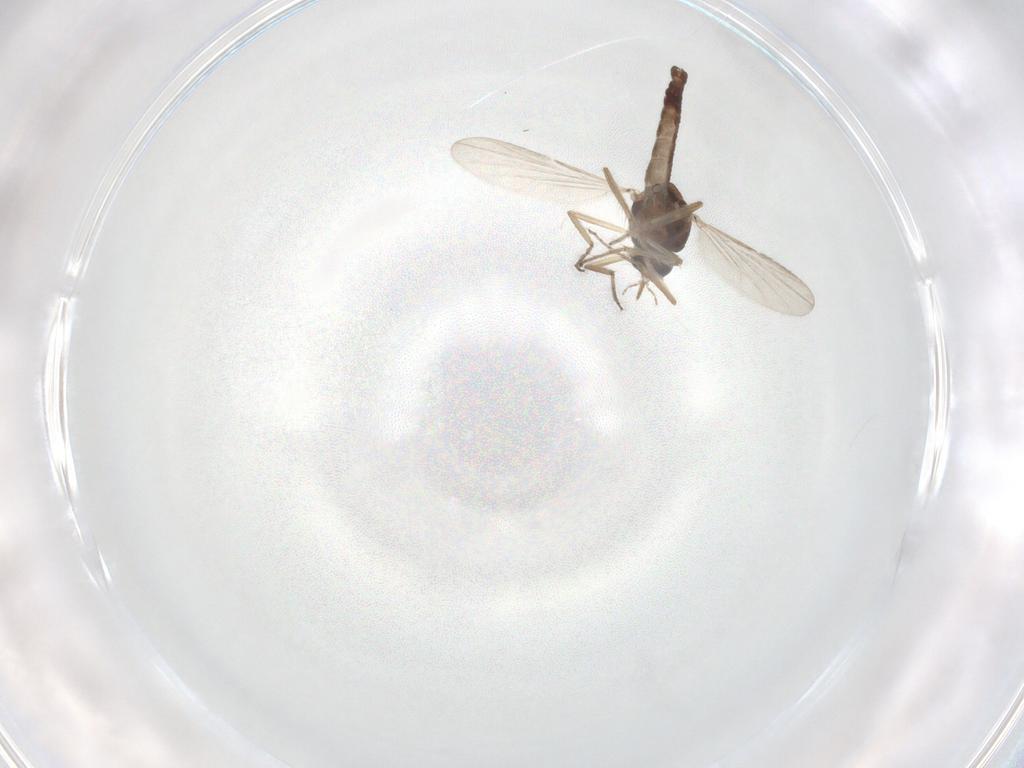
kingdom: Animalia
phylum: Arthropoda
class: Insecta
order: Diptera
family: Ceratopogonidae
